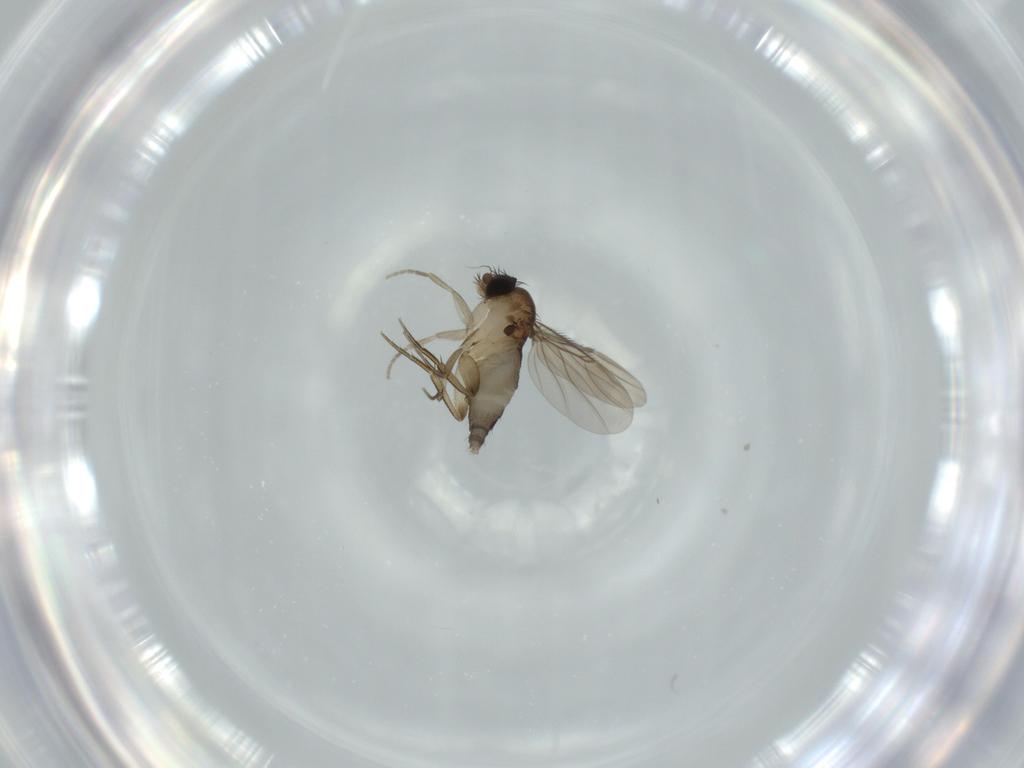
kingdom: Animalia
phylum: Arthropoda
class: Insecta
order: Diptera
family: Phoridae
